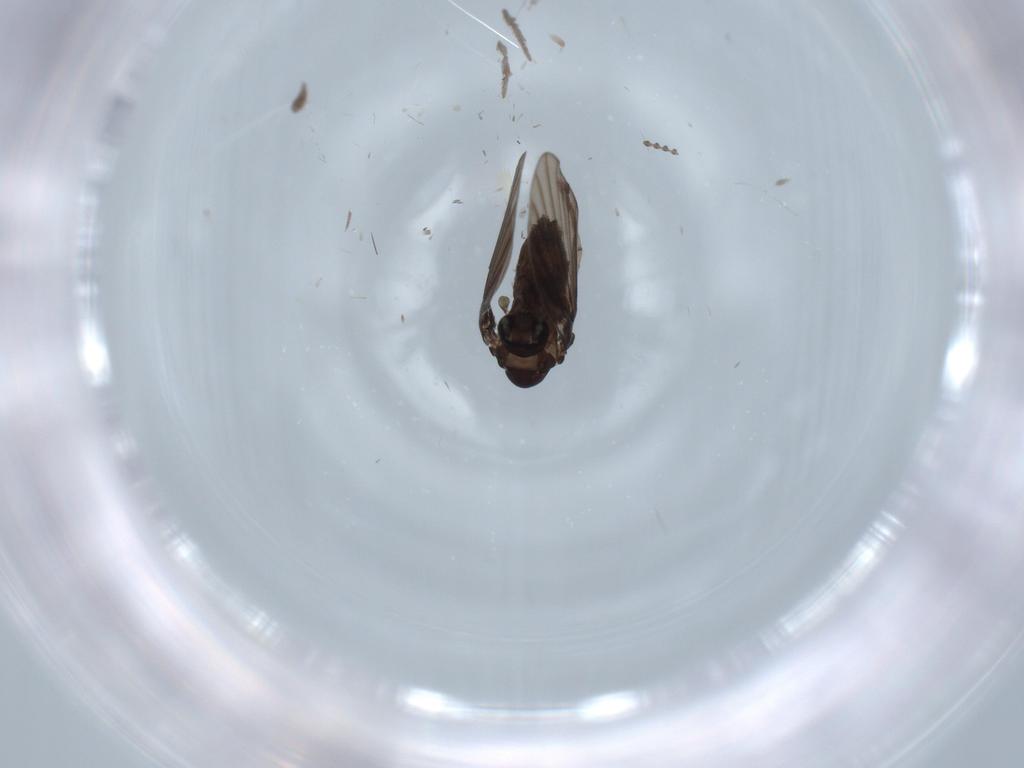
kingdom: Animalia
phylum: Arthropoda
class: Insecta
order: Diptera
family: Psychodidae
